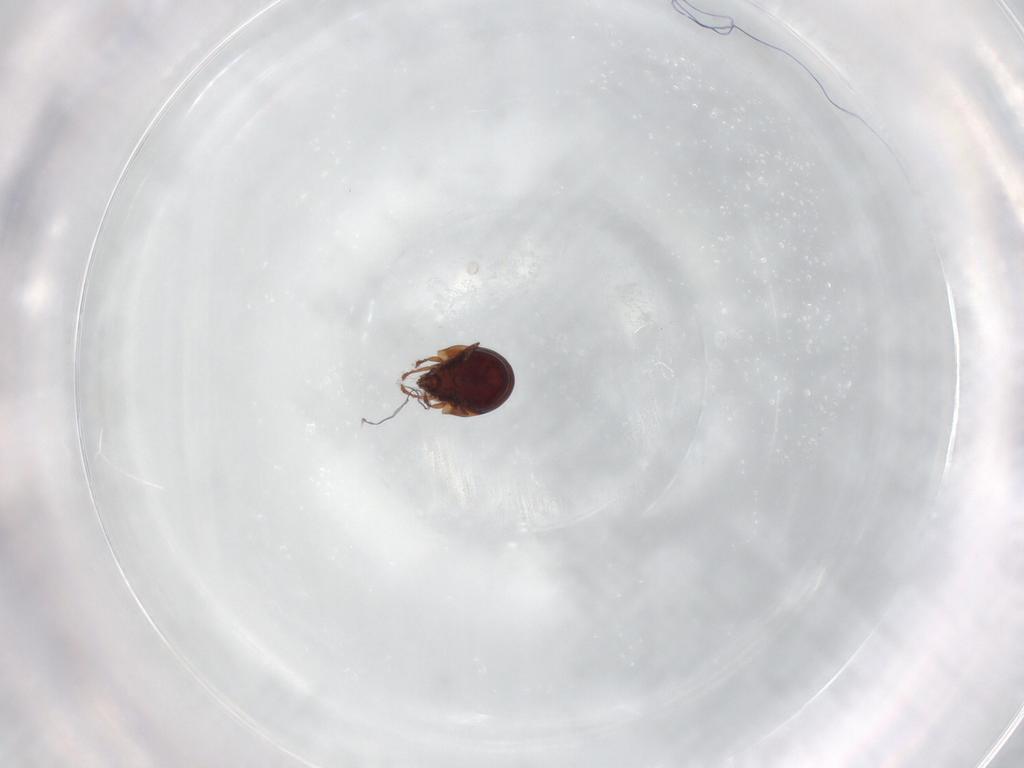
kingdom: Animalia
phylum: Arthropoda
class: Arachnida
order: Sarcoptiformes
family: Humerobatidae
